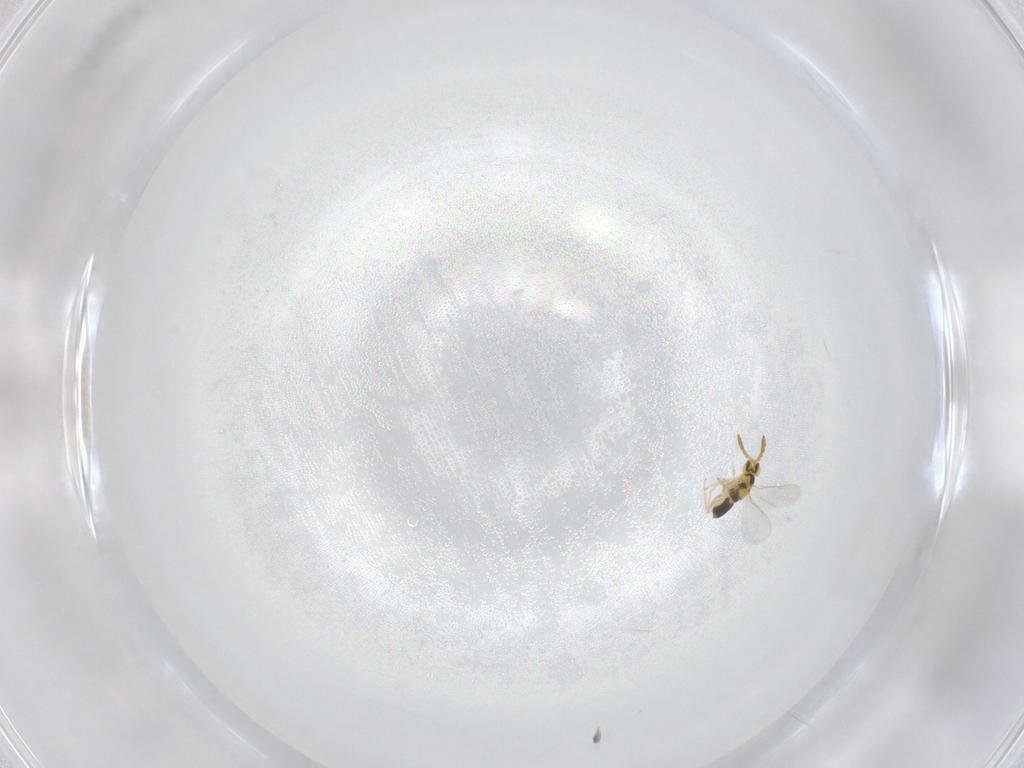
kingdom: Animalia
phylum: Arthropoda
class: Insecta
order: Hymenoptera
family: Aphelinidae
